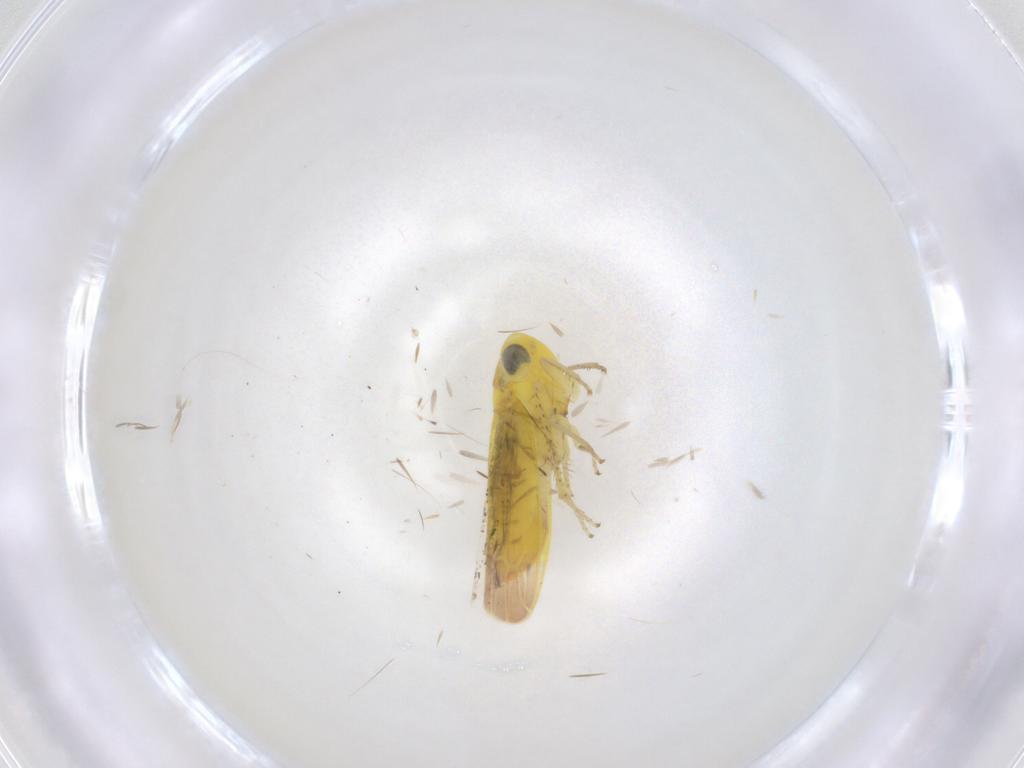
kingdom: Animalia
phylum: Arthropoda
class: Insecta
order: Hemiptera
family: Cicadellidae
